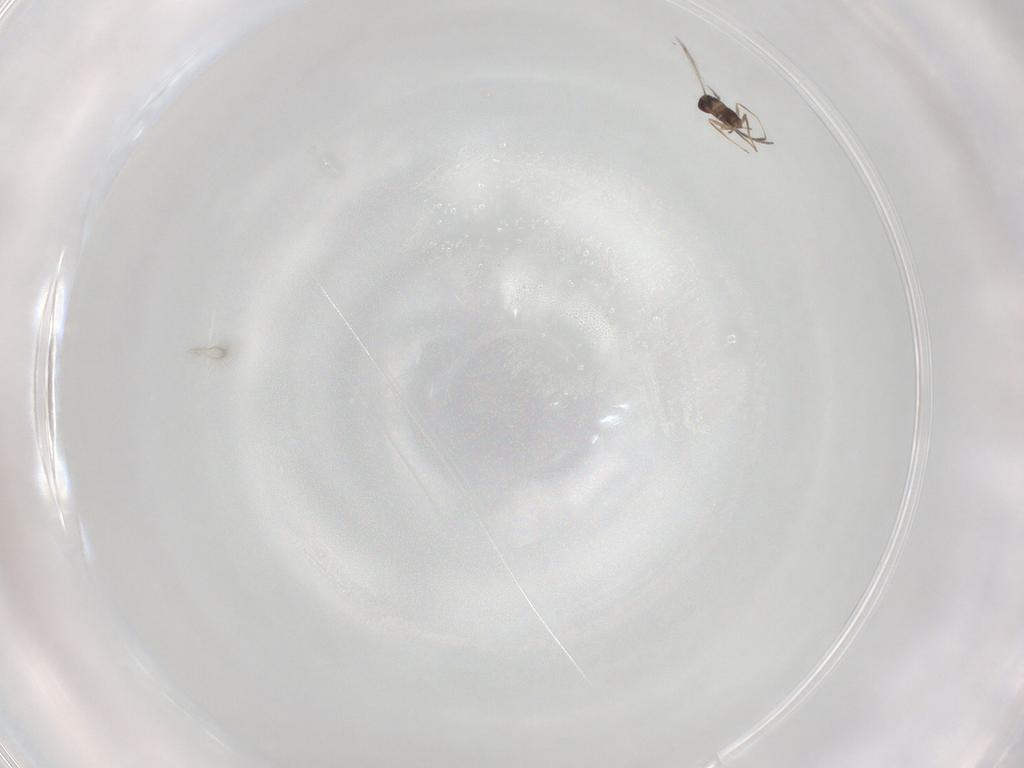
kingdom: Animalia
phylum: Arthropoda
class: Insecta
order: Hymenoptera
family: Mymaridae
